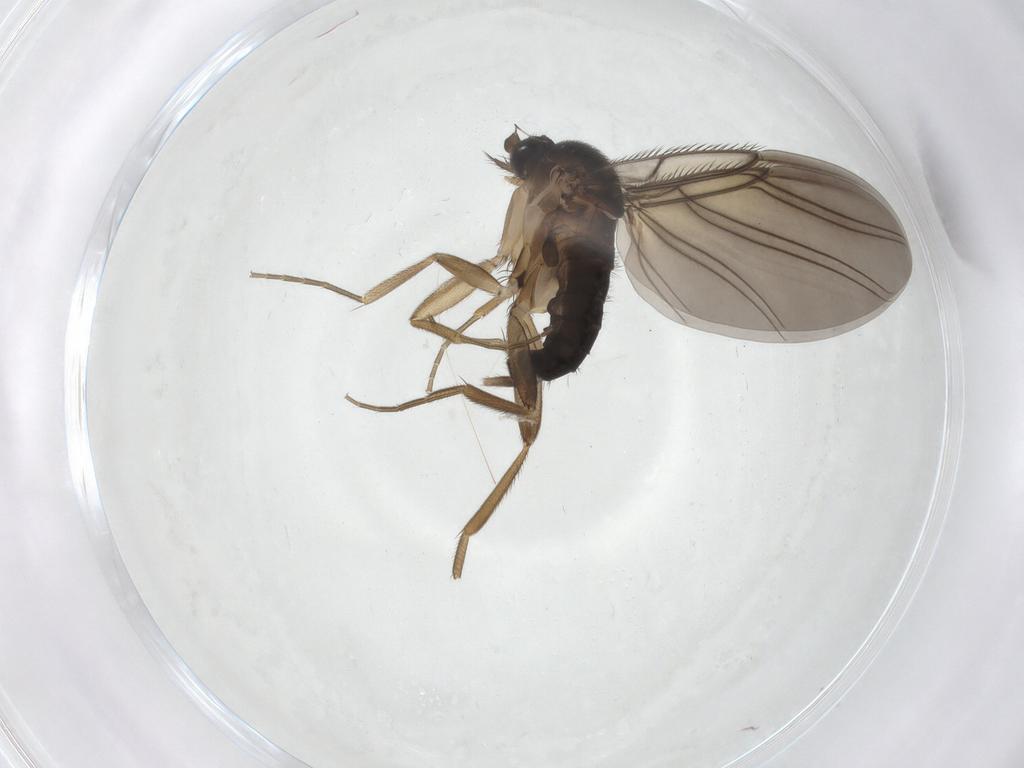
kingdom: Animalia
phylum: Arthropoda
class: Insecta
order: Diptera
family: Phoridae
